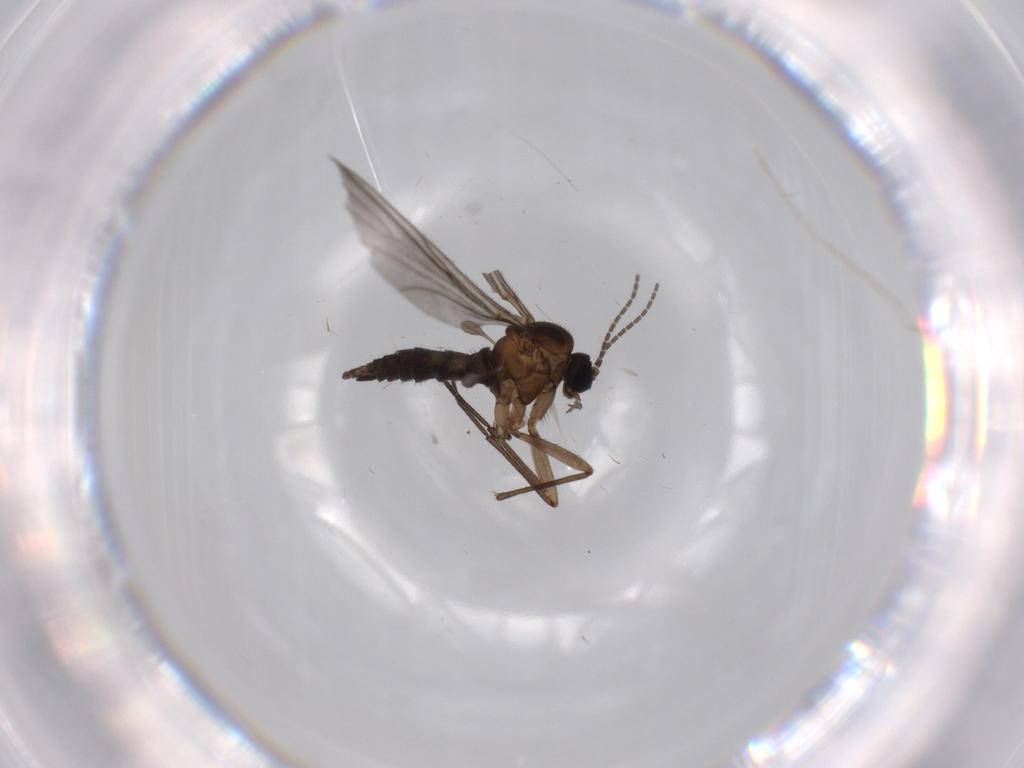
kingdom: Animalia
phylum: Arthropoda
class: Insecta
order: Diptera
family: Sciaridae
